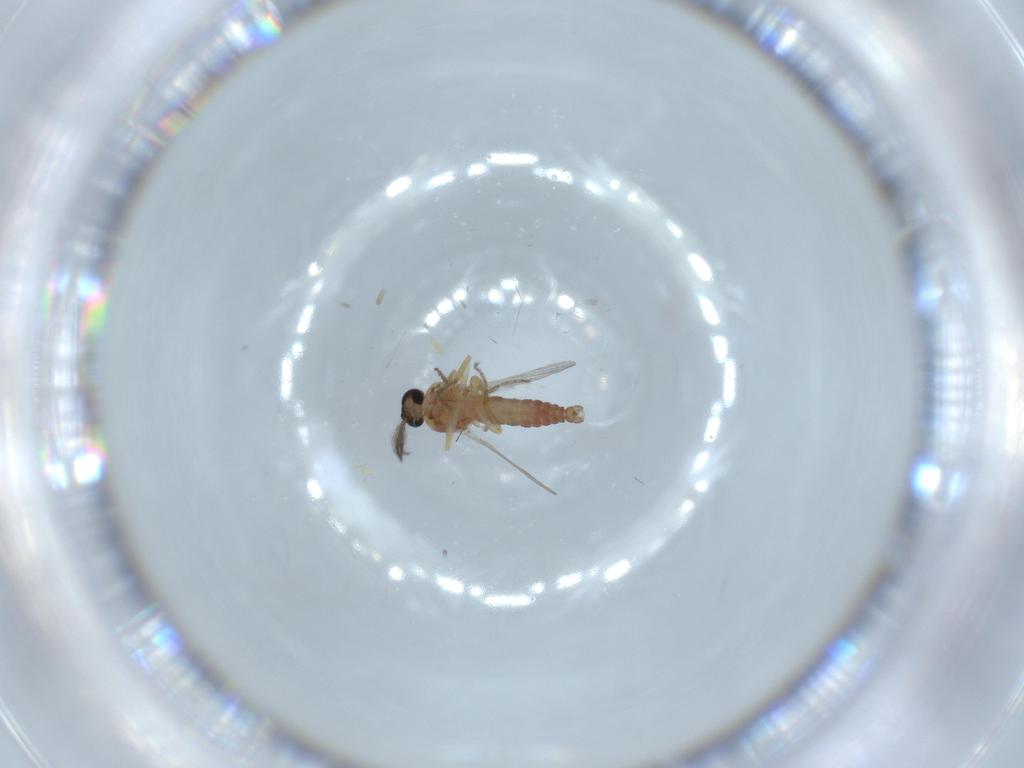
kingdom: Animalia
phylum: Arthropoda
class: Insecta
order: Diptera
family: Ceratopogonidae
